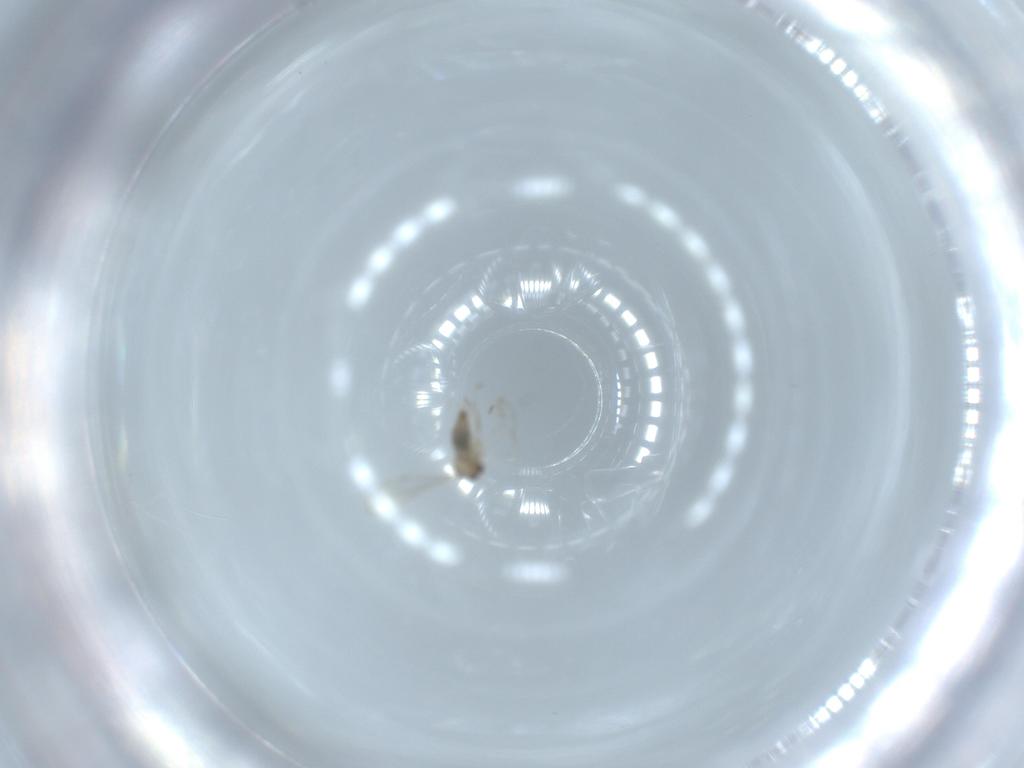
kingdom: Animalia
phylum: Arthropoda
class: Insecta
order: Diptera
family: Cecidomyiidae
